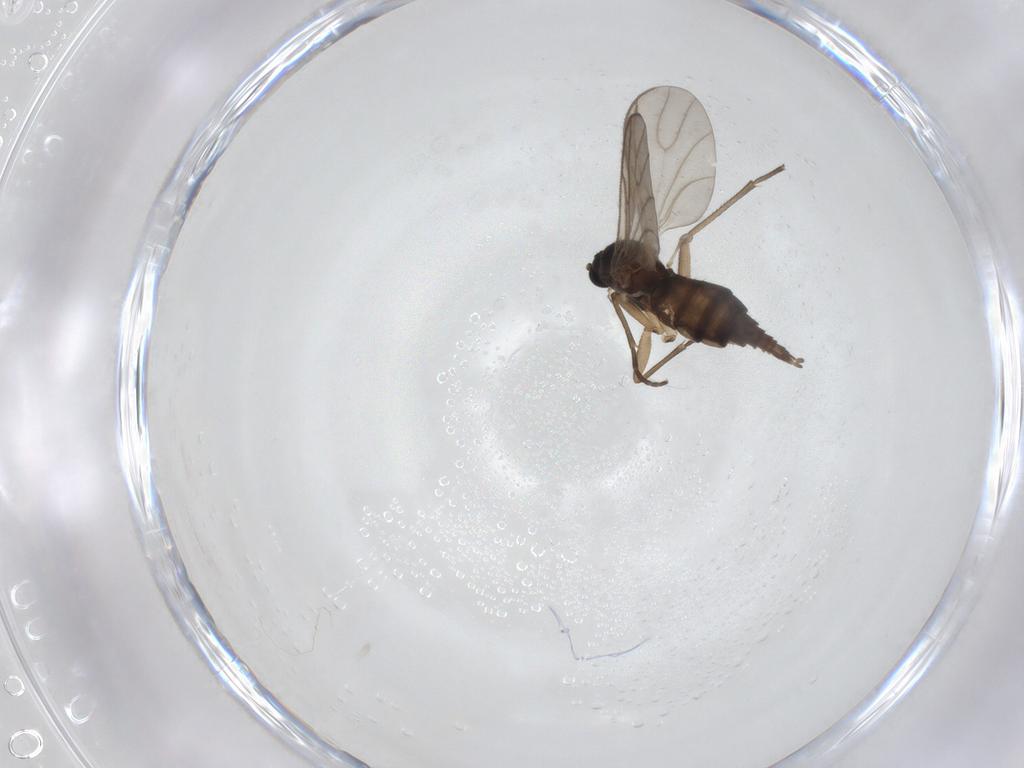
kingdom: Animalia
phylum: Arthropoda
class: Insecta
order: Diptera
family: Sciaridae
